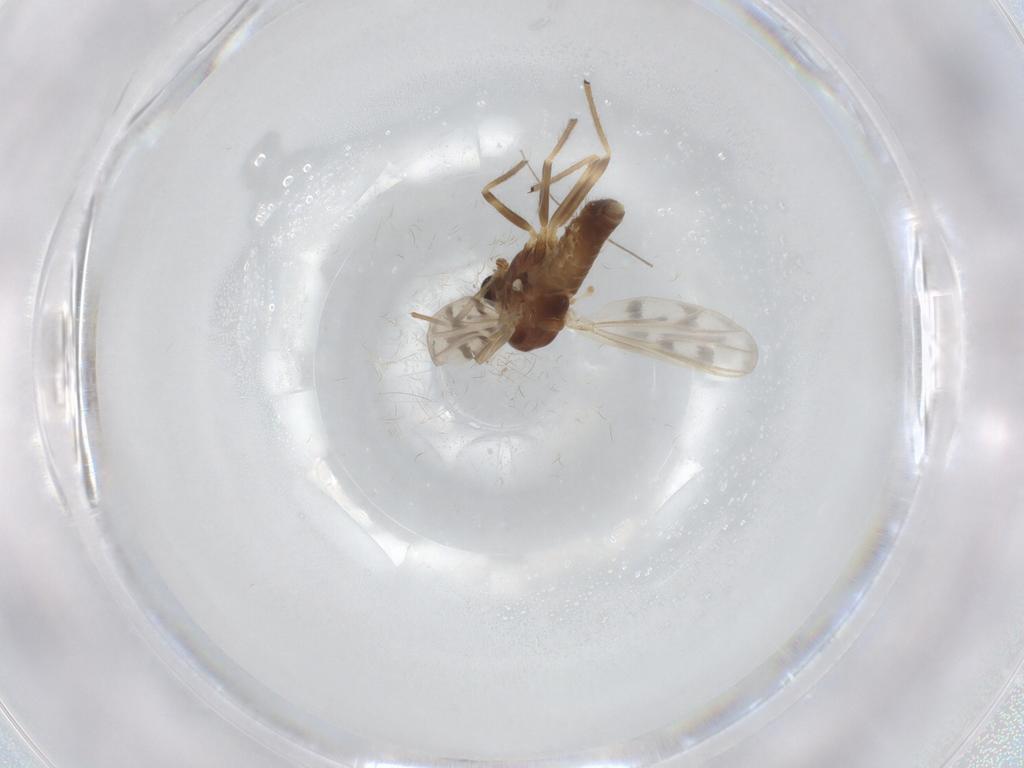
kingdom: Animalia
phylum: Arthropoda
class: Insecta
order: Diptera
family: Chironomidae
